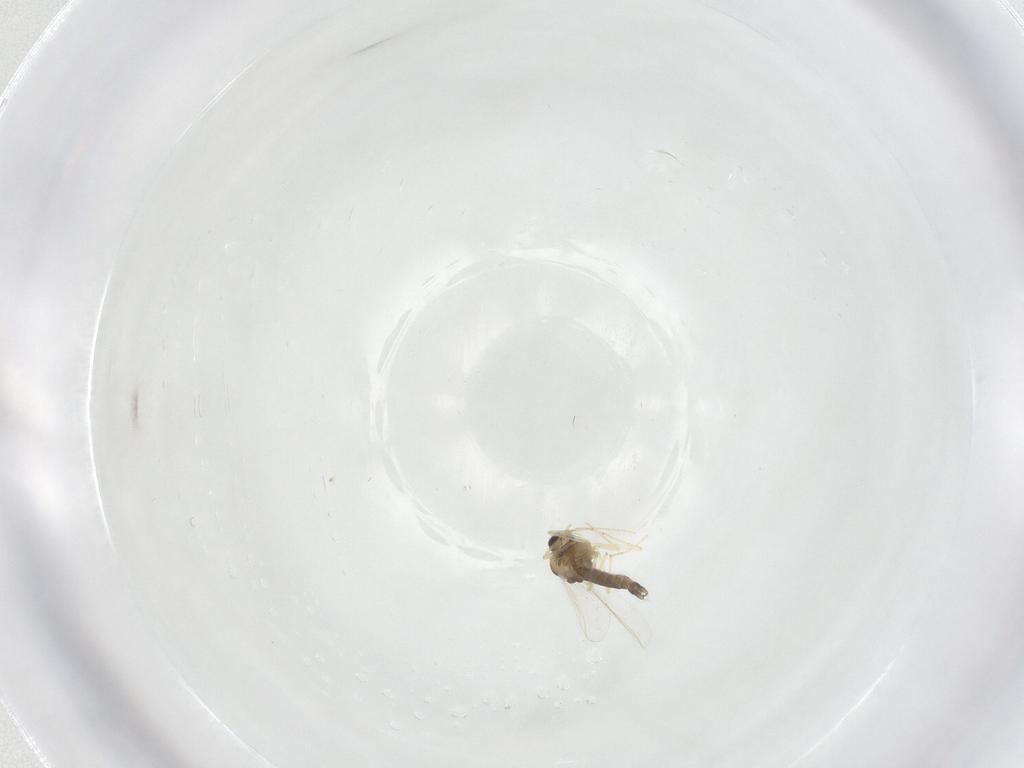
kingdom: Animalia
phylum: Arthropoda
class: Insecta
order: Diptera
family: Chironomidae
